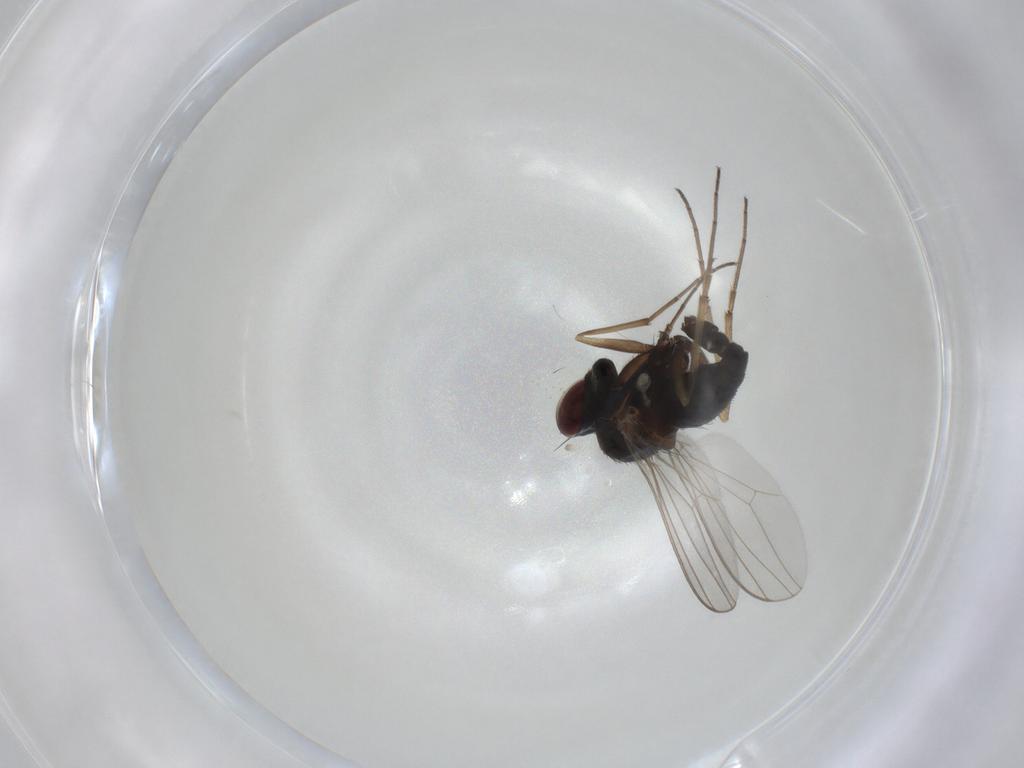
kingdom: Animalia
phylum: Arthropoda
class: Insecta
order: Diptera
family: Dolichopodidae
